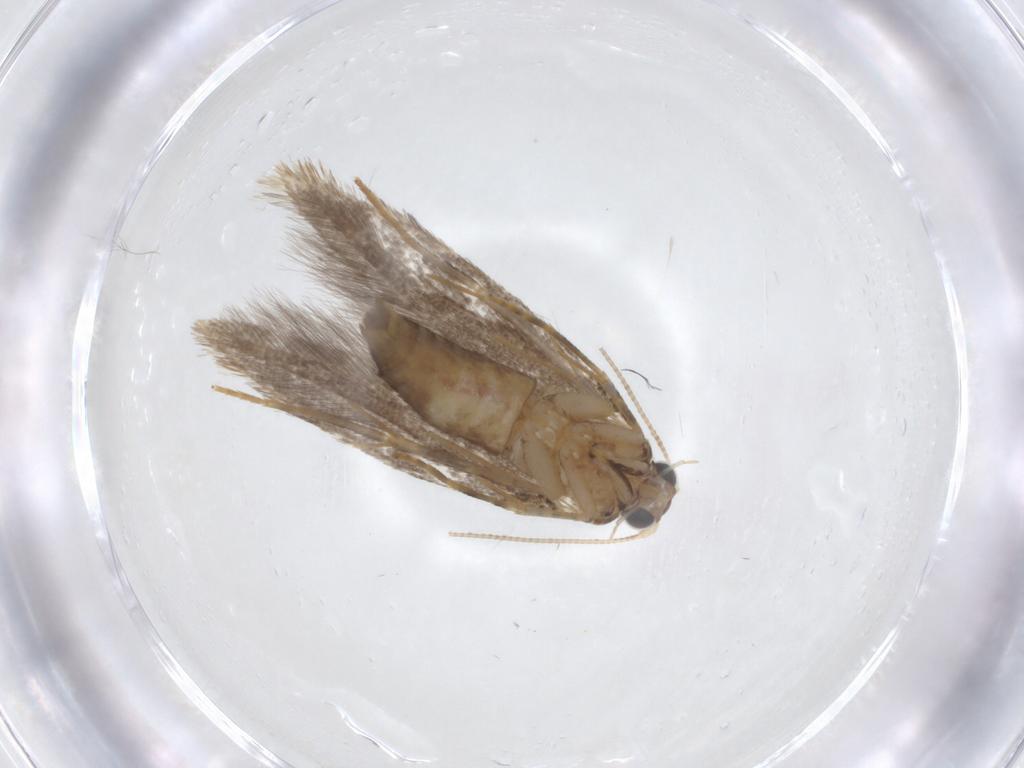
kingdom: Animalia
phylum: Arthropoda
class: Insecta
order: Lepidoptera
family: Tineidae
